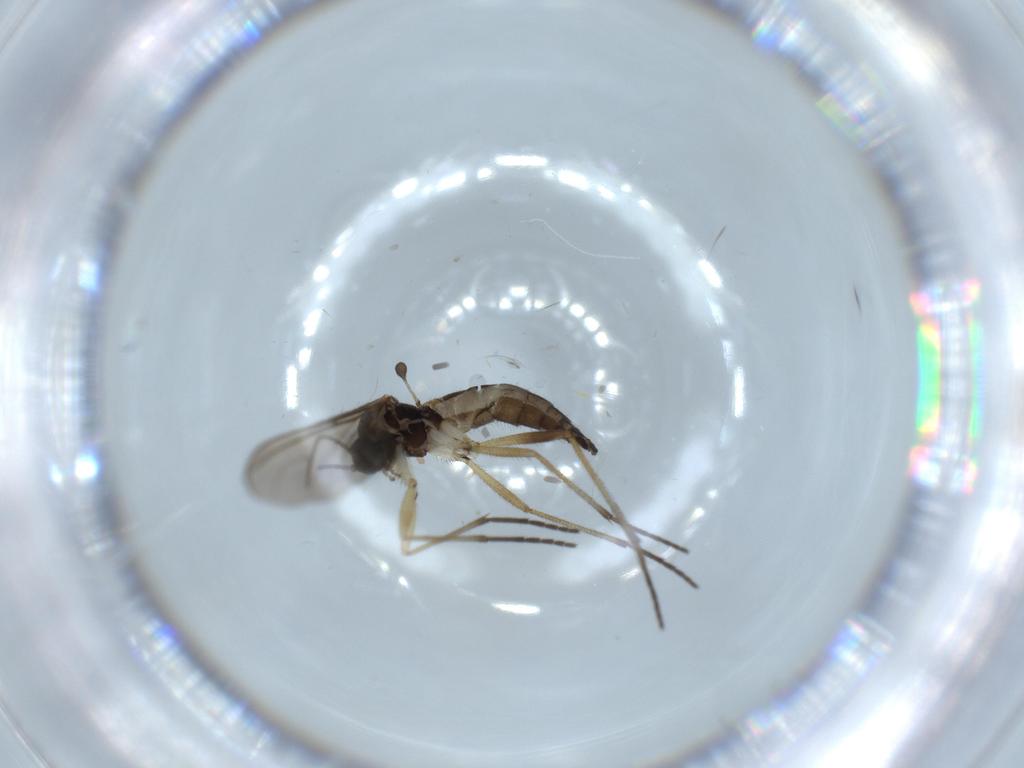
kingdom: Animalia
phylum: Arthropoda
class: Insecta
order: Diptera
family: Sciaridae
